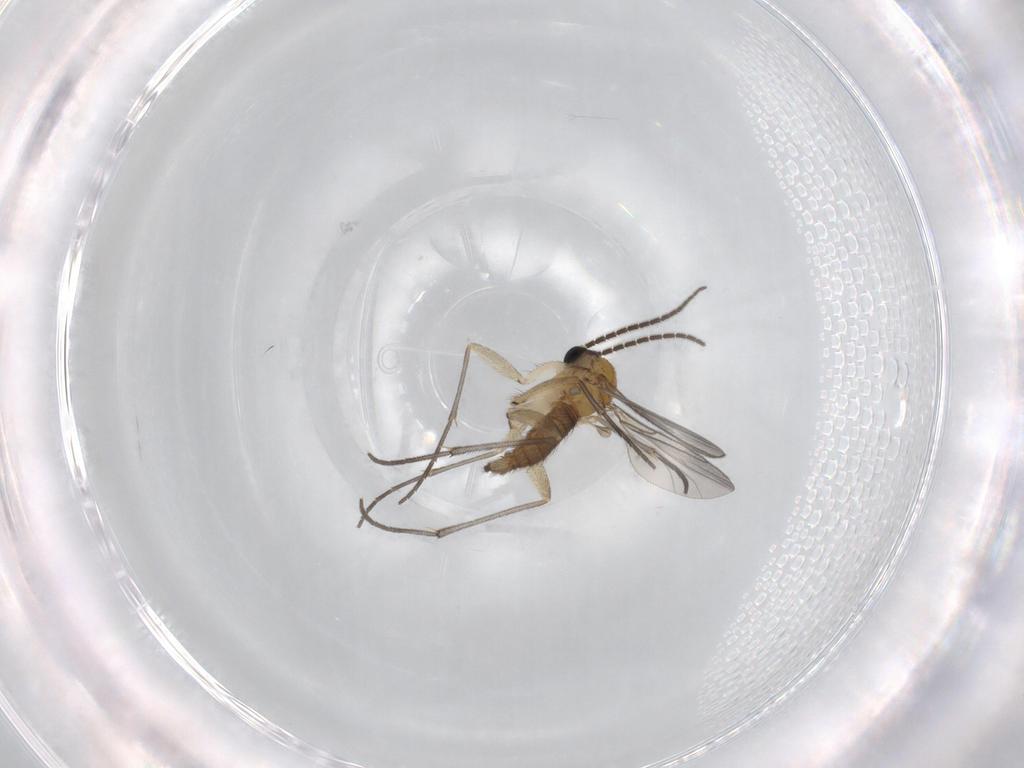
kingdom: Animalia
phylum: Arthropoda
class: Insecta
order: Diptera
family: Sciaridae
